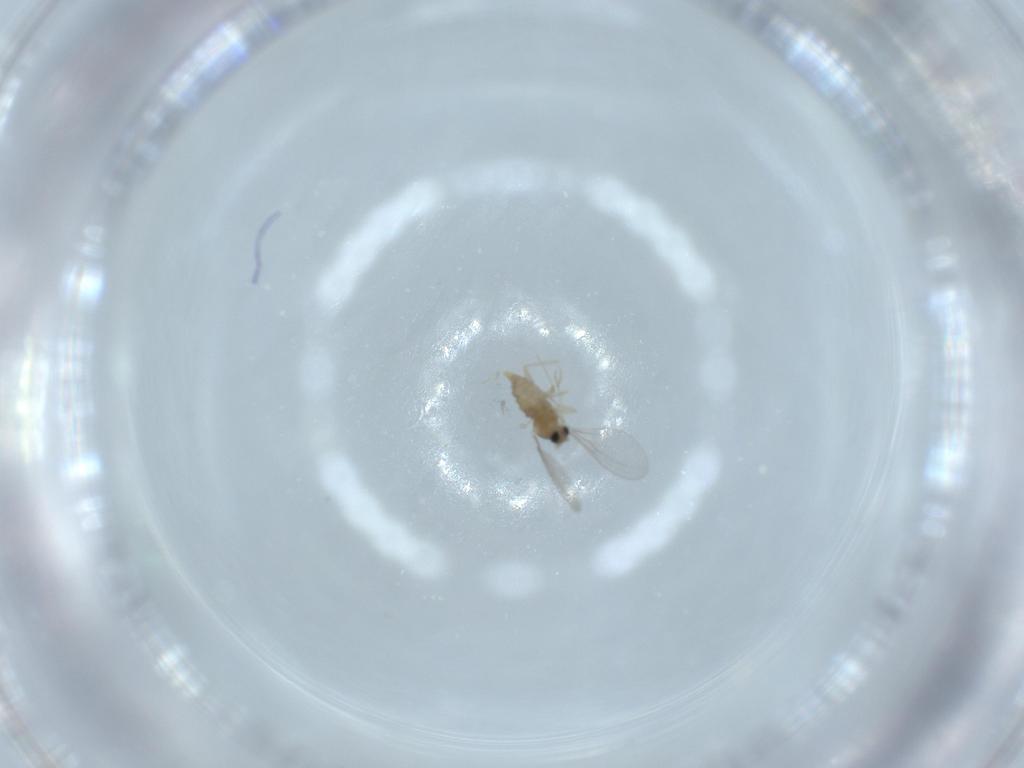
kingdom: Animalia
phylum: Arthropoda
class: Insecta
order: Diptera
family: Cecidomyiidae
